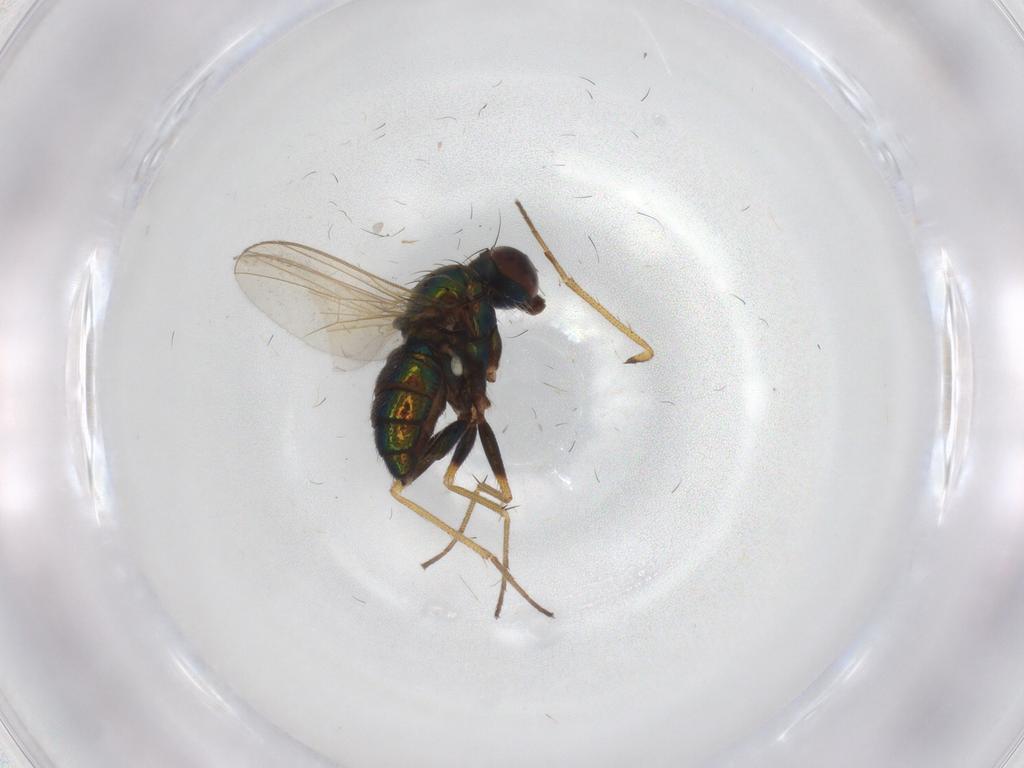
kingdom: Animalia
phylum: Arthropoda
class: Insecta
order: Diptera
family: Dolichopodidae
